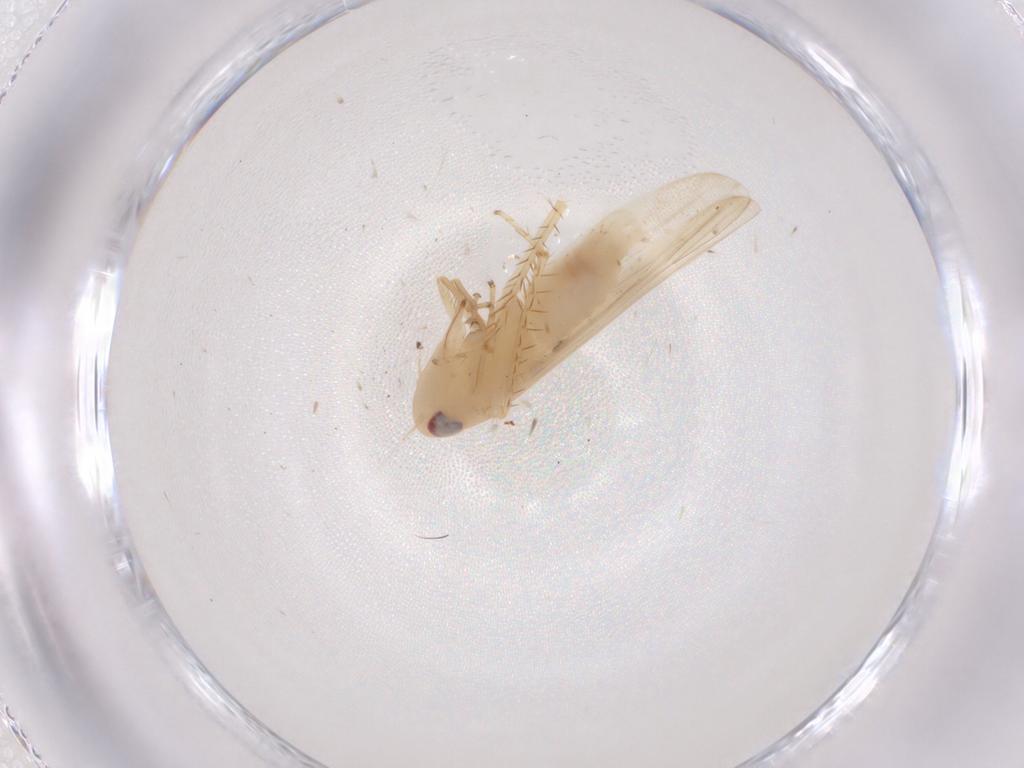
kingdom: Animalia
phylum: Arthropoda
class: Insecta
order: Hemiptera
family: Cicadellidae
